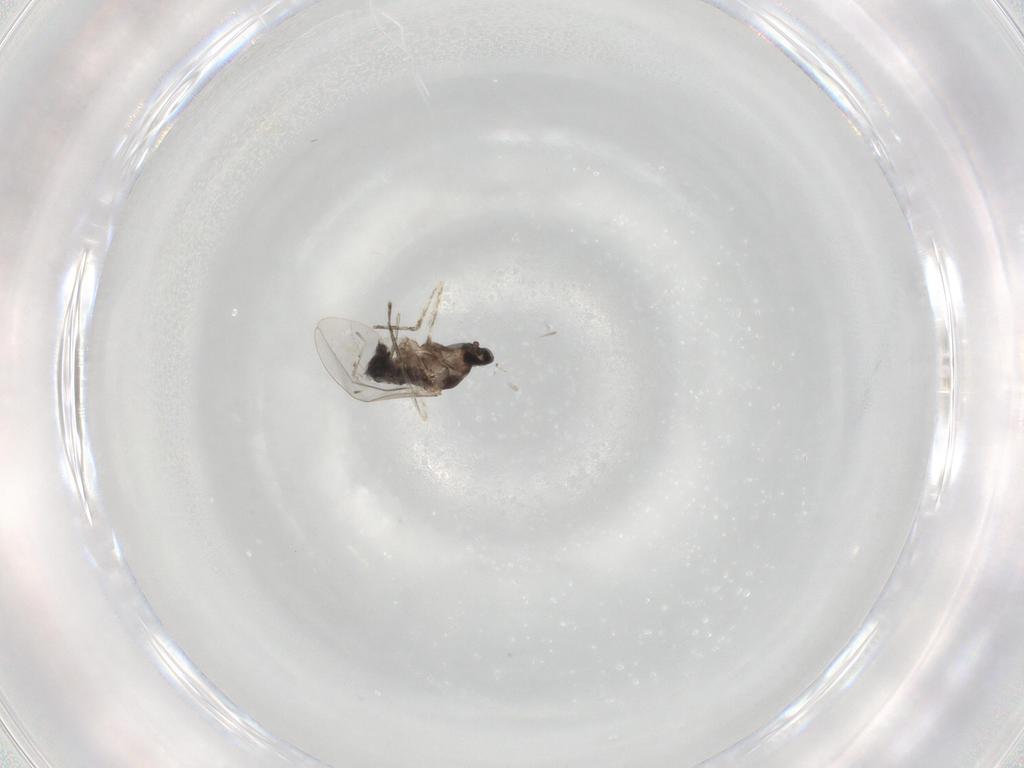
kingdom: Animalia
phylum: Arthropoda
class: Insecta
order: Diptera
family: Cecidomyiidae
